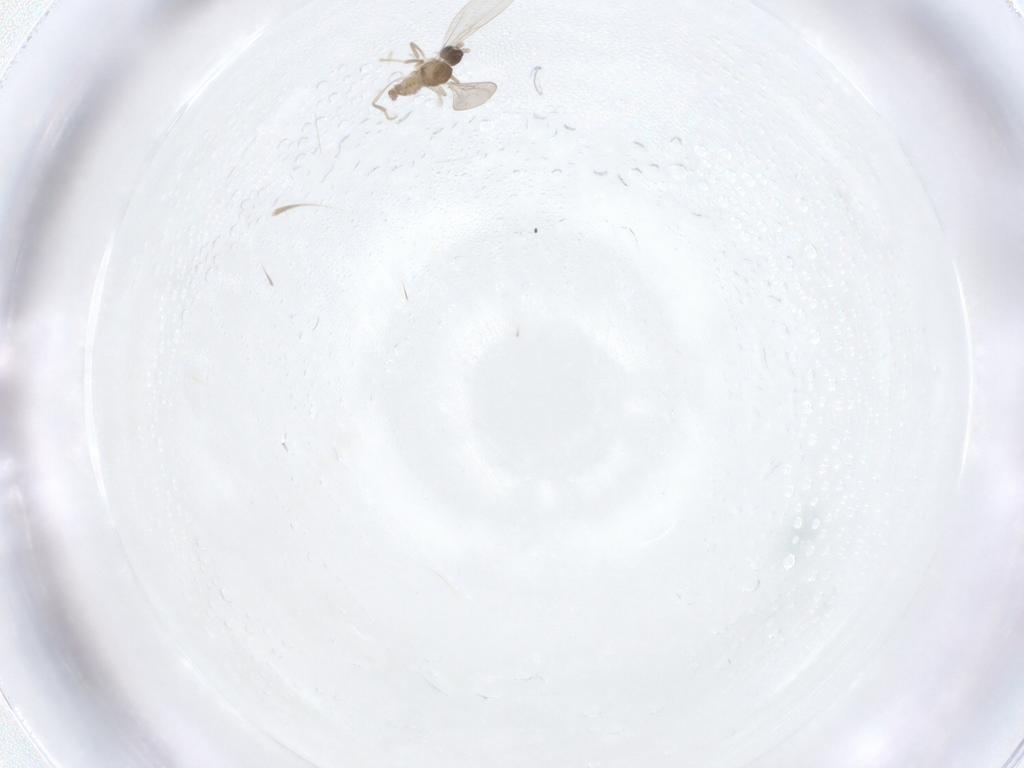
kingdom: Animalia
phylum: Arthropoda
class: Insecta
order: Diptera
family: Empididae
